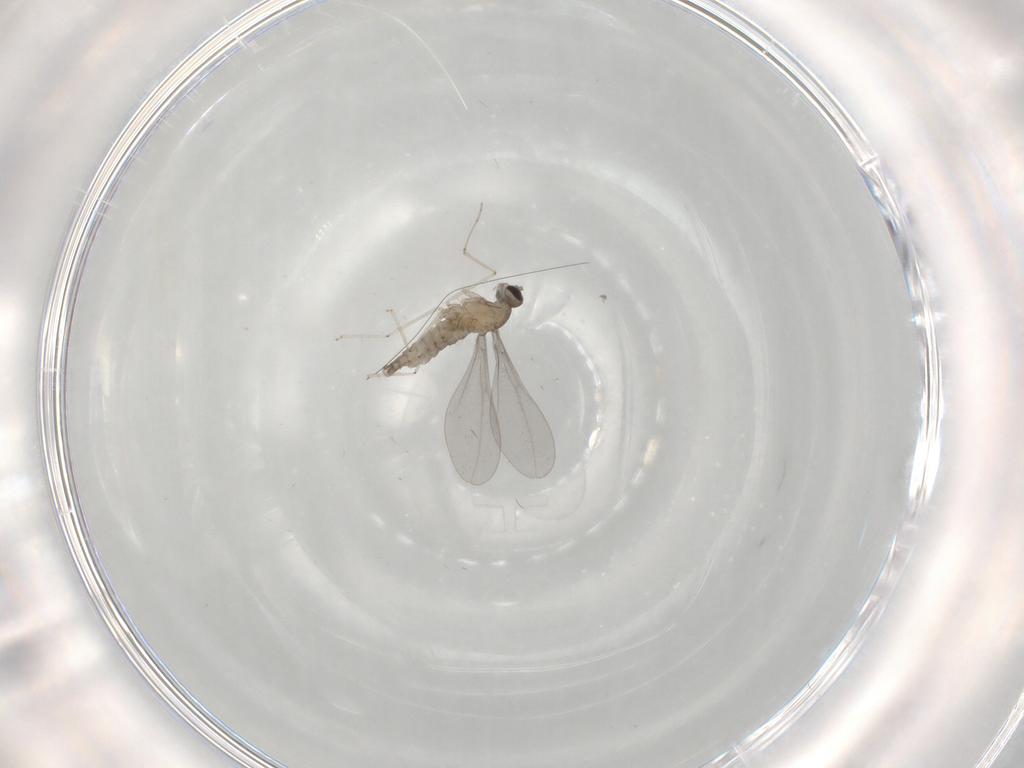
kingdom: Animalia
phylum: Arthropoda
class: Insecta
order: Diptera
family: Cecidomyiidae
